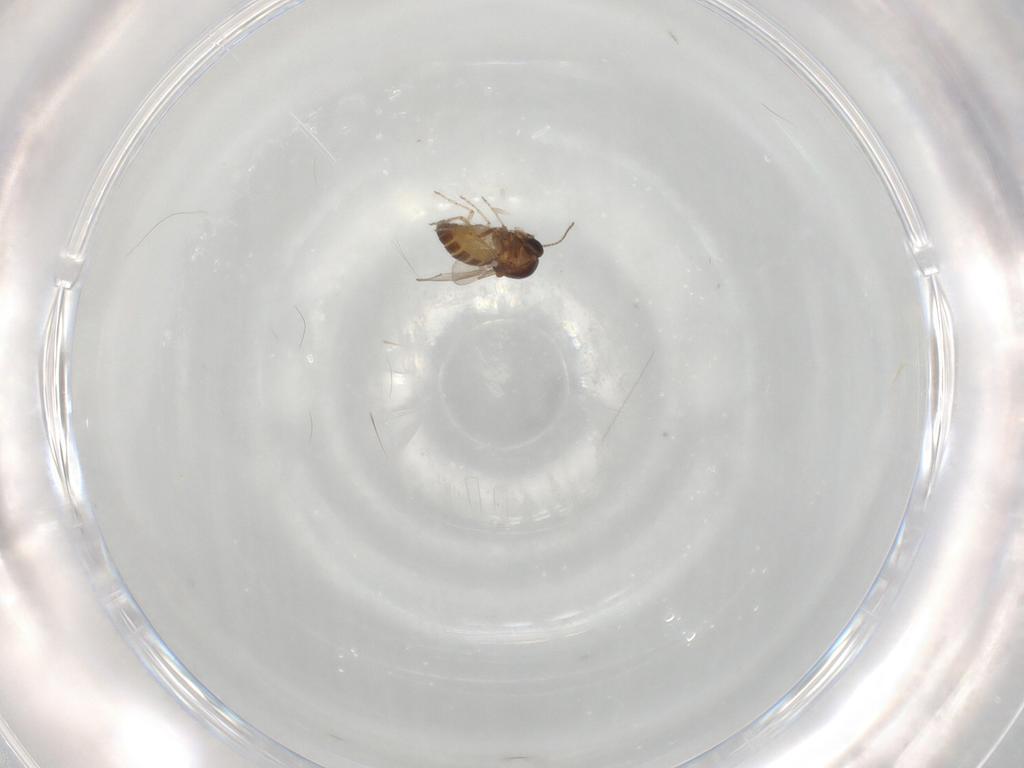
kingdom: Animalia
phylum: Arthropoda
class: Insecta
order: Diptera
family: Ceratopogonidae
